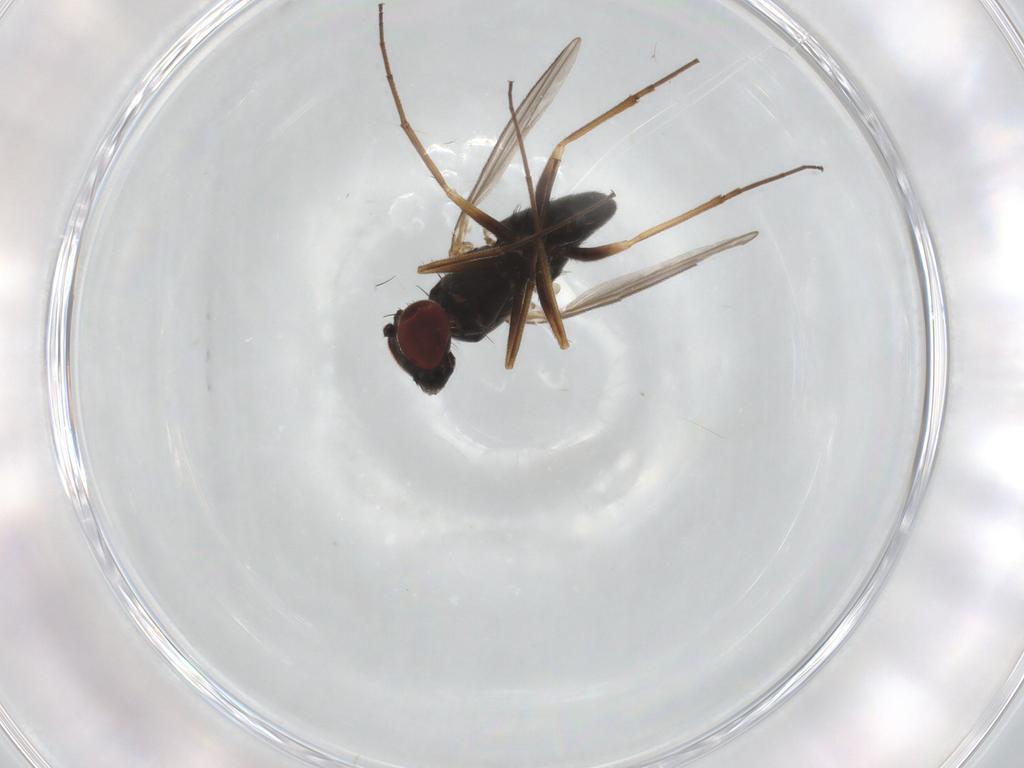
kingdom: Animalia
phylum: Arthropoda
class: Insecta
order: Diptera
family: Dolichopodidae
